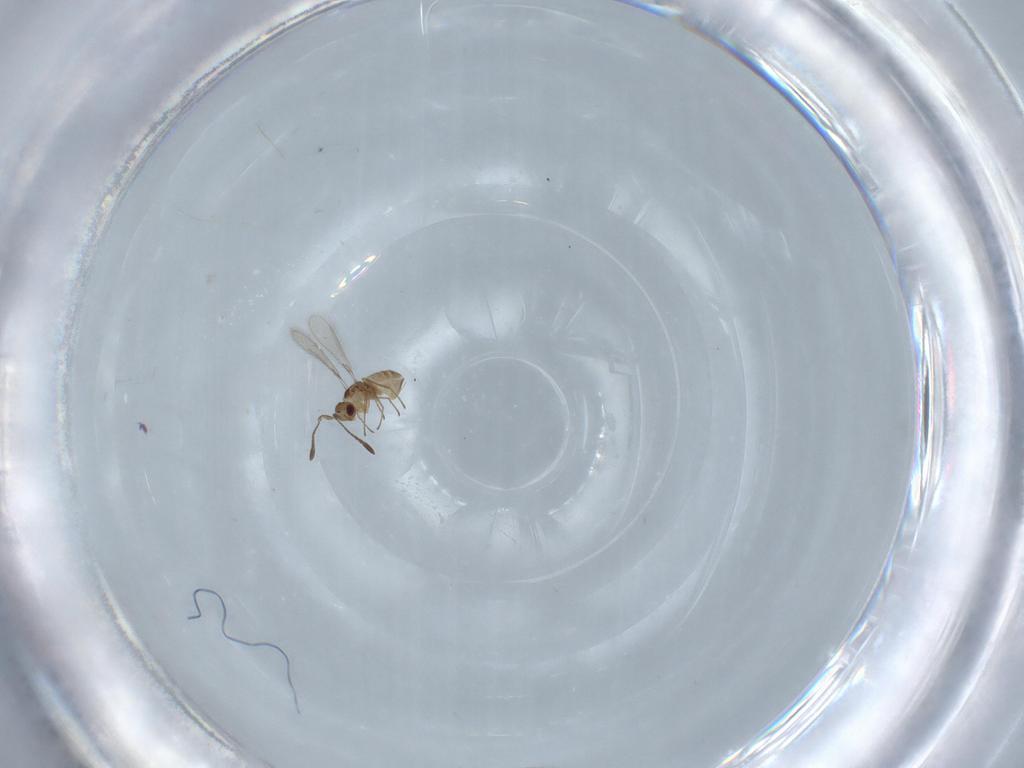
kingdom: Animalia
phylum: Arthropoda
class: Insecta
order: Hymenoptera
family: Mymaridae
